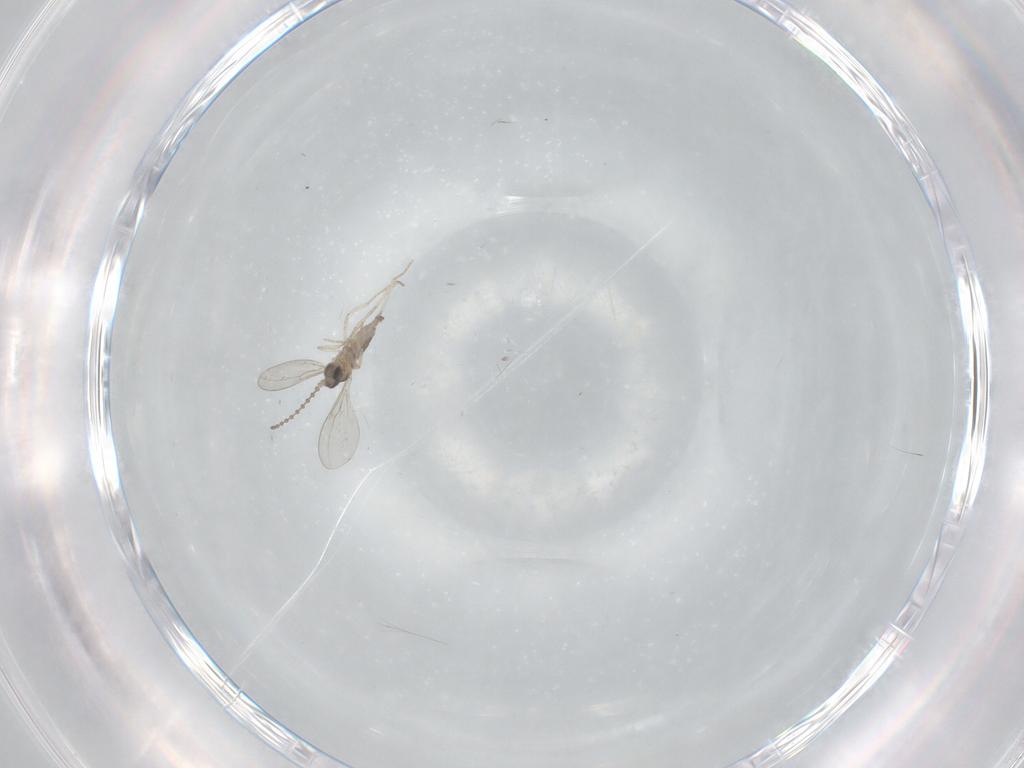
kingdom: Animalia
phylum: Arthropoda
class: Insecta
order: Diptera
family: Cecidomyiidae
